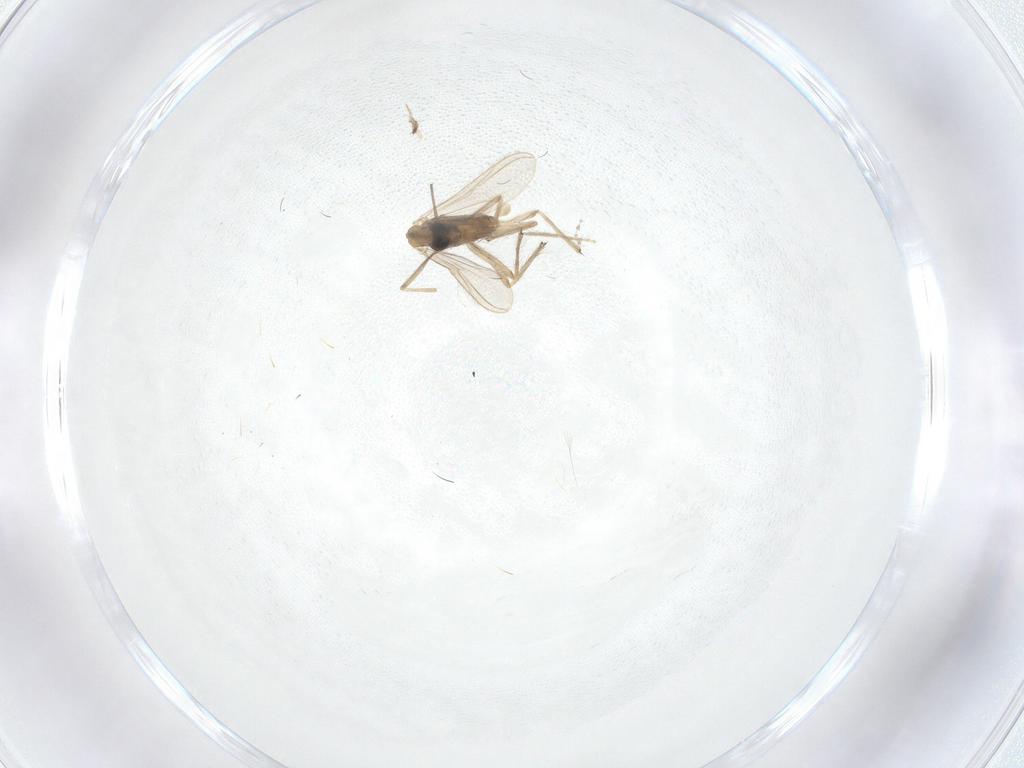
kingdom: Animalia
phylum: Arthropoda
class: Insecta
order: Diptera
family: Chironomidae
